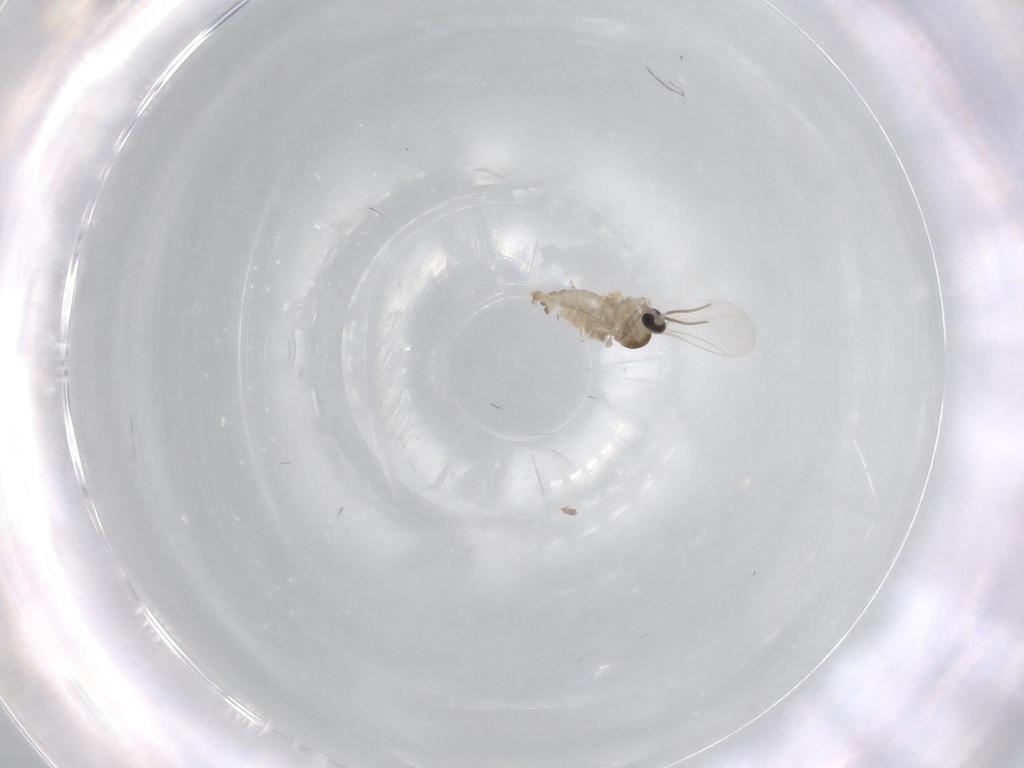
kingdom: Animalia
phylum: Arthropoda
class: Insecta
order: Diptera
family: Cecidomyiidae
